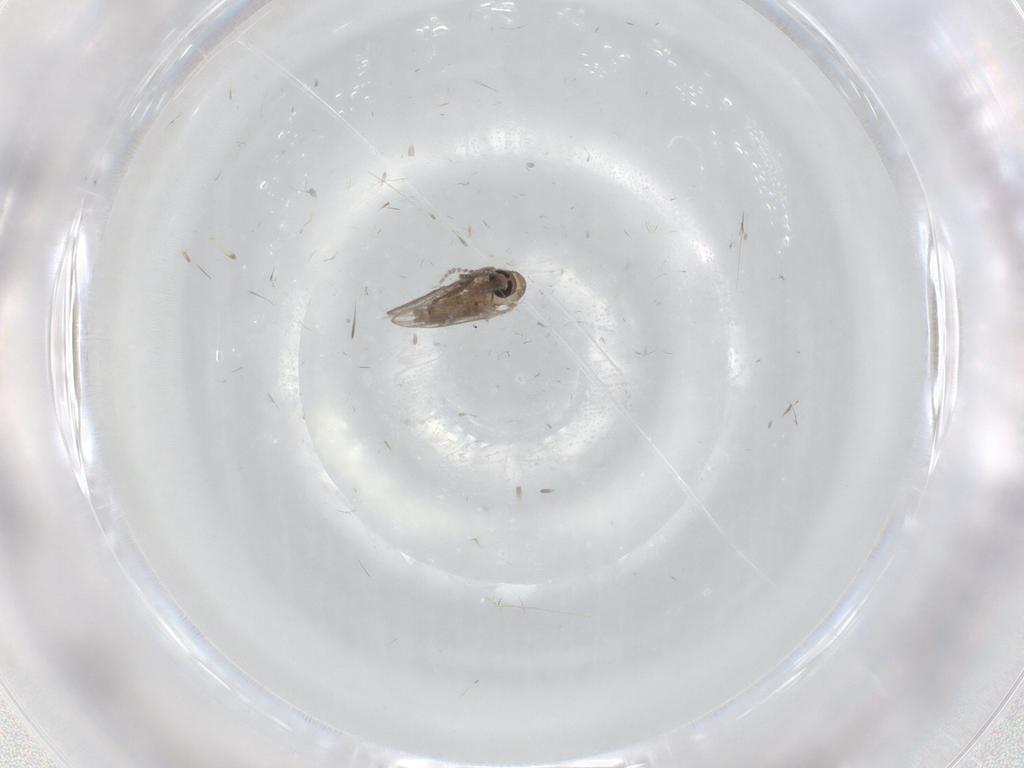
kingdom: Animalia
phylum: Arthropoda
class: Insecta
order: Diptera
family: Psychodidae
